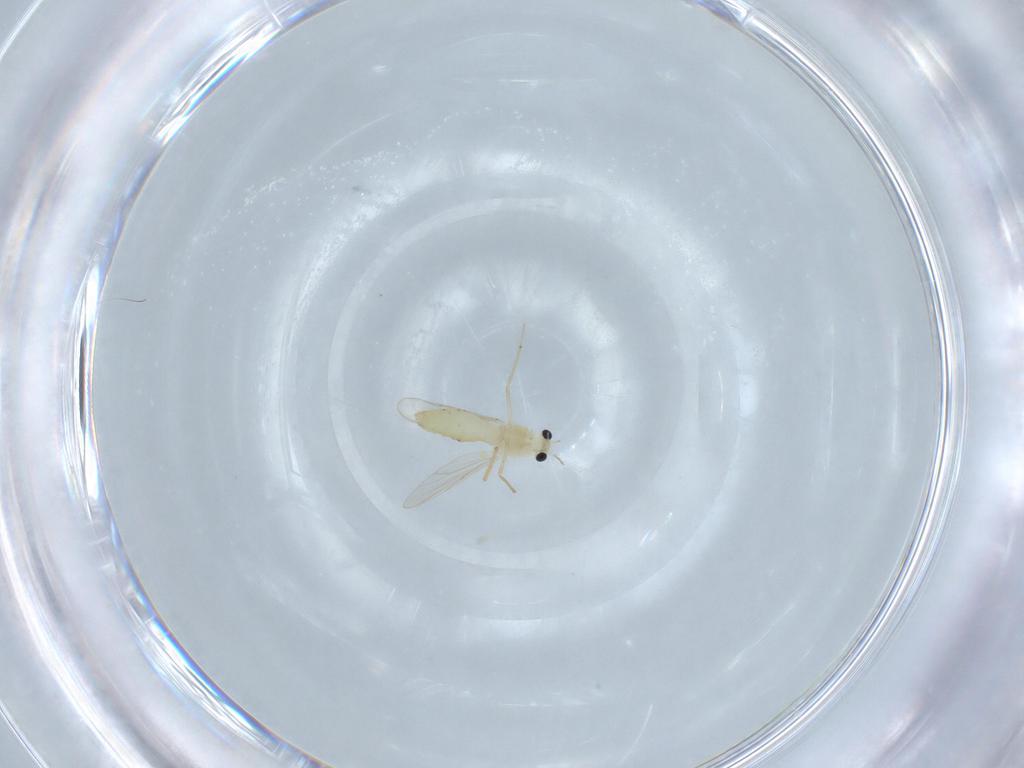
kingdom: Animalia
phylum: Arthropoda
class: Insecta
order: Diptera
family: Chironomidae
